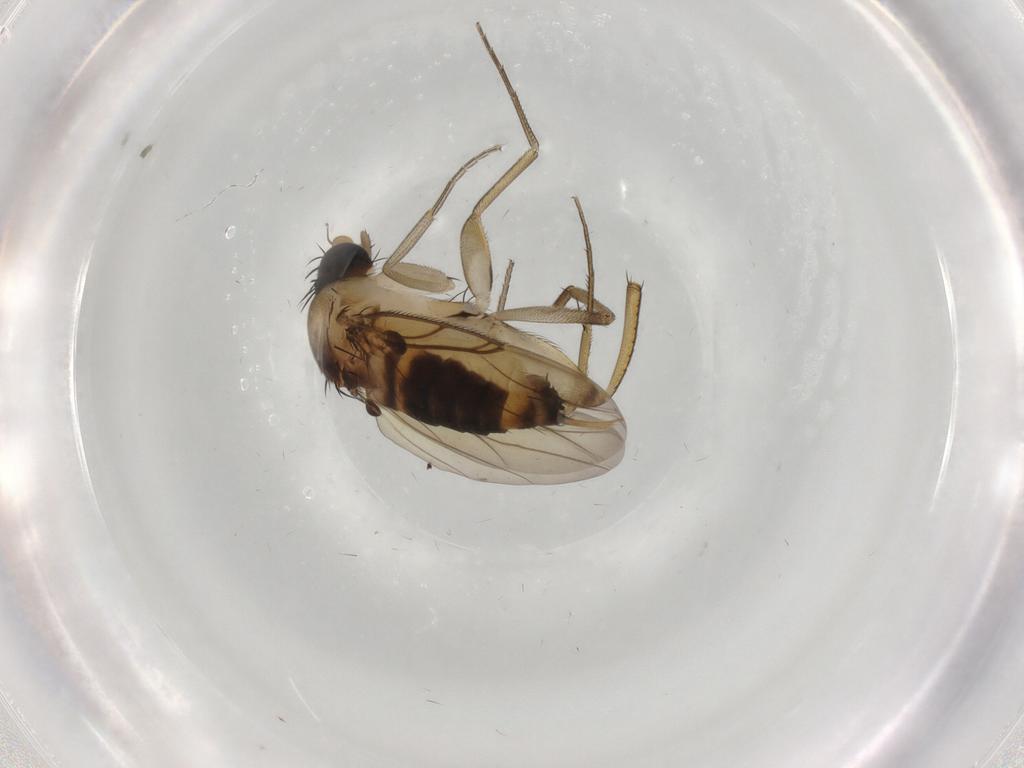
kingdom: Animalia
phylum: Arthropoda
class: Insecta
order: Diptera
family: Phoridae
